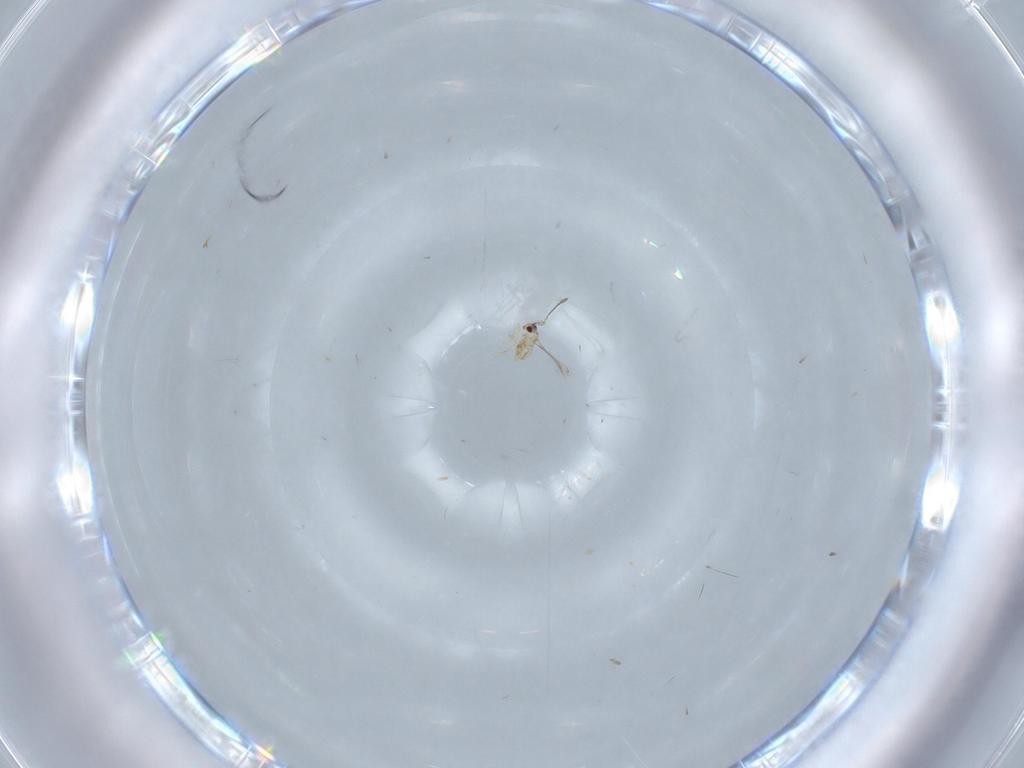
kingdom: Animalia
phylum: Arthropoda
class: Insecta
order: Hymenoptera
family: Mymaridae
